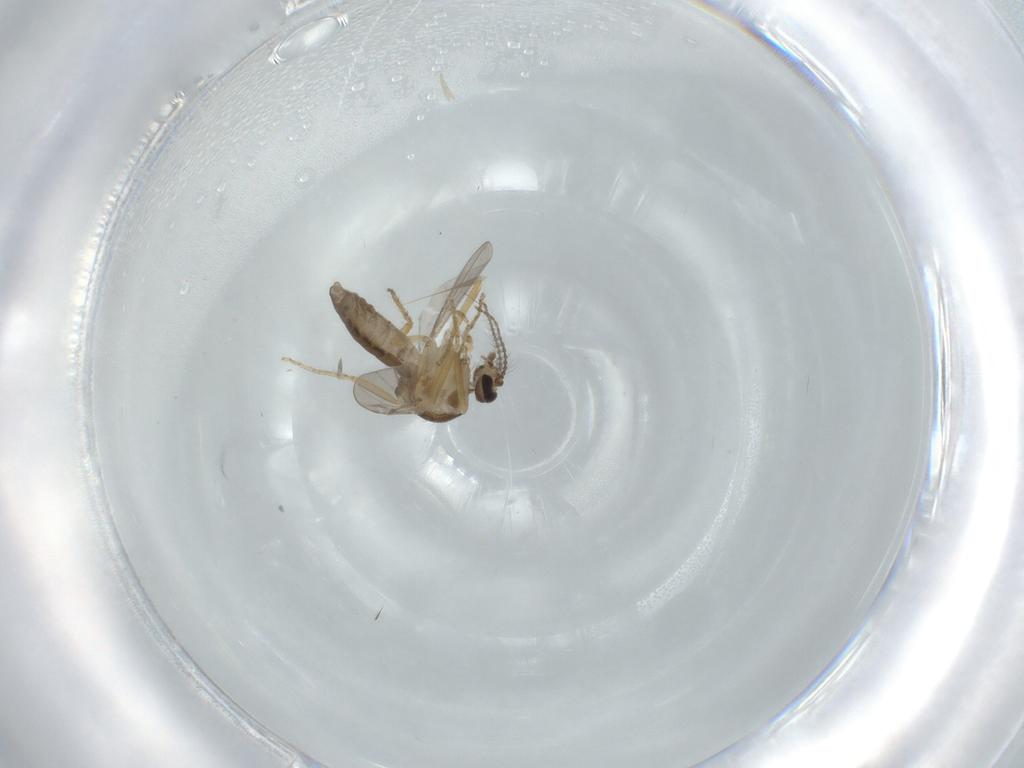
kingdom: Animalia
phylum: Arthropoda
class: Insecta
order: Diptera
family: Ceratopogonidae
